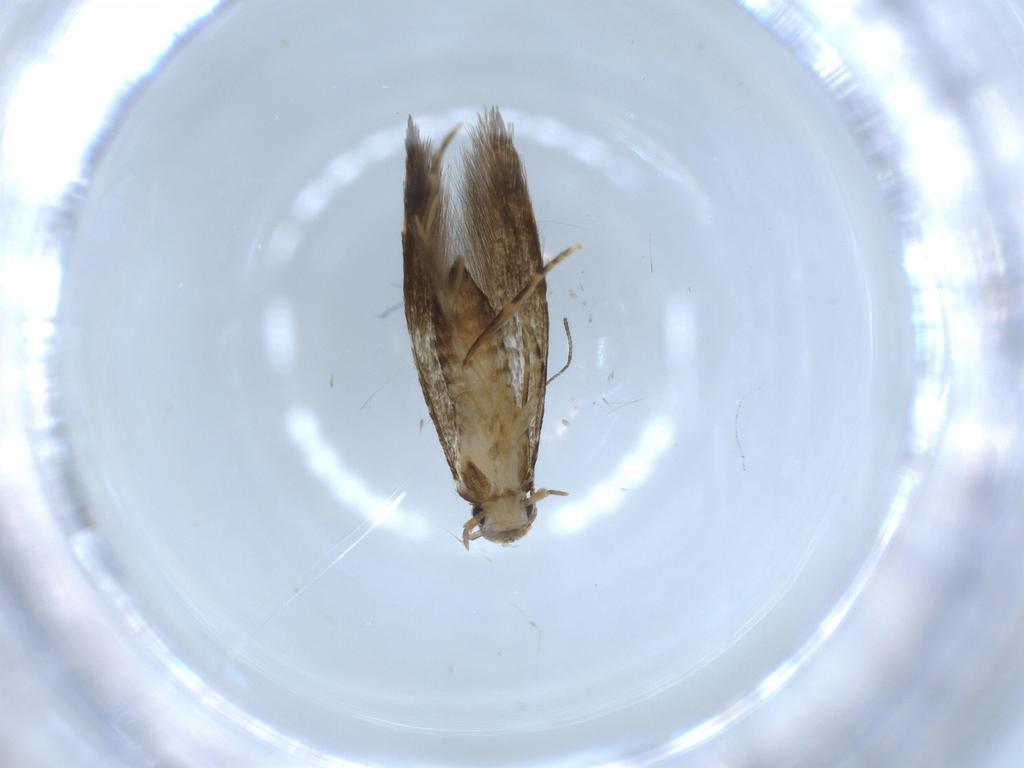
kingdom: Animalia
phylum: Arthropoda
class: Insecta
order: Lepidoptera
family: Tineidae
